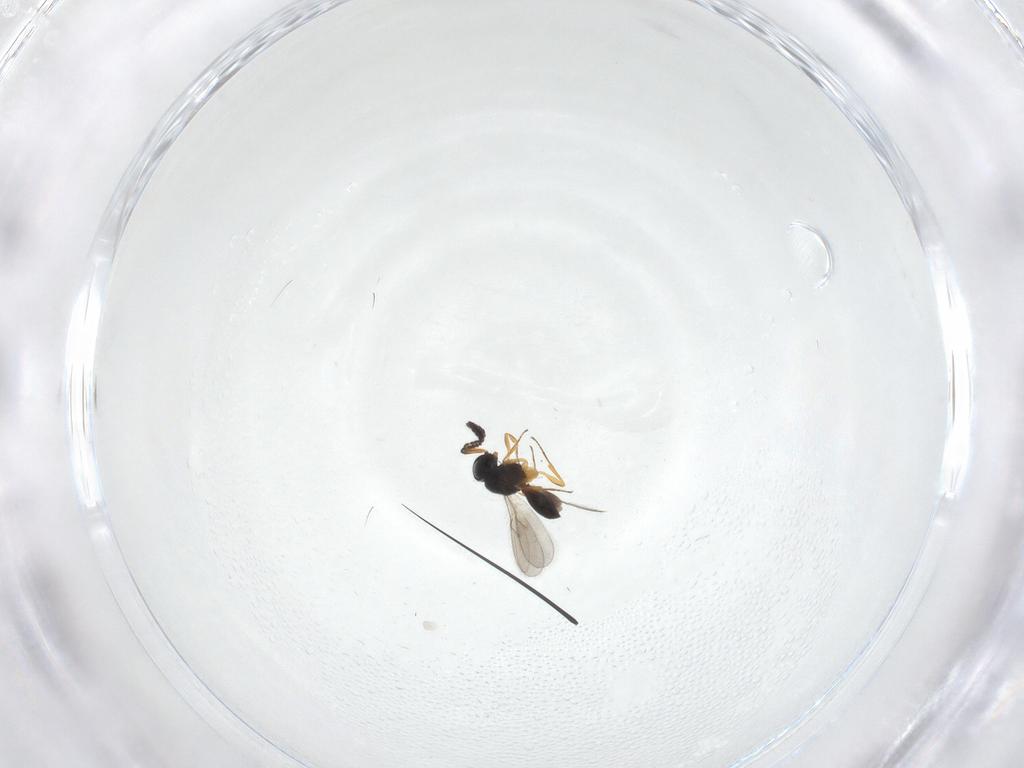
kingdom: Animalia
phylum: Arthropoda
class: Insecta
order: Hymenoptera
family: Scelionidae
